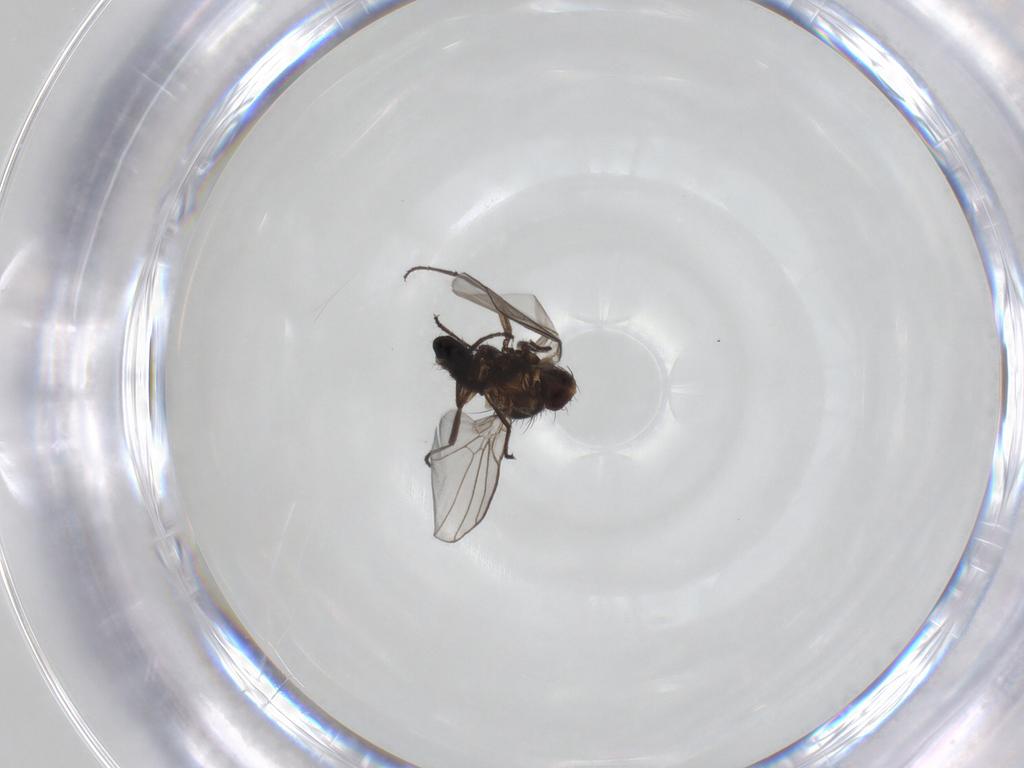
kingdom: Animalia
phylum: Arthropoda
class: Insecta
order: Diptera
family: Agromyzidae
